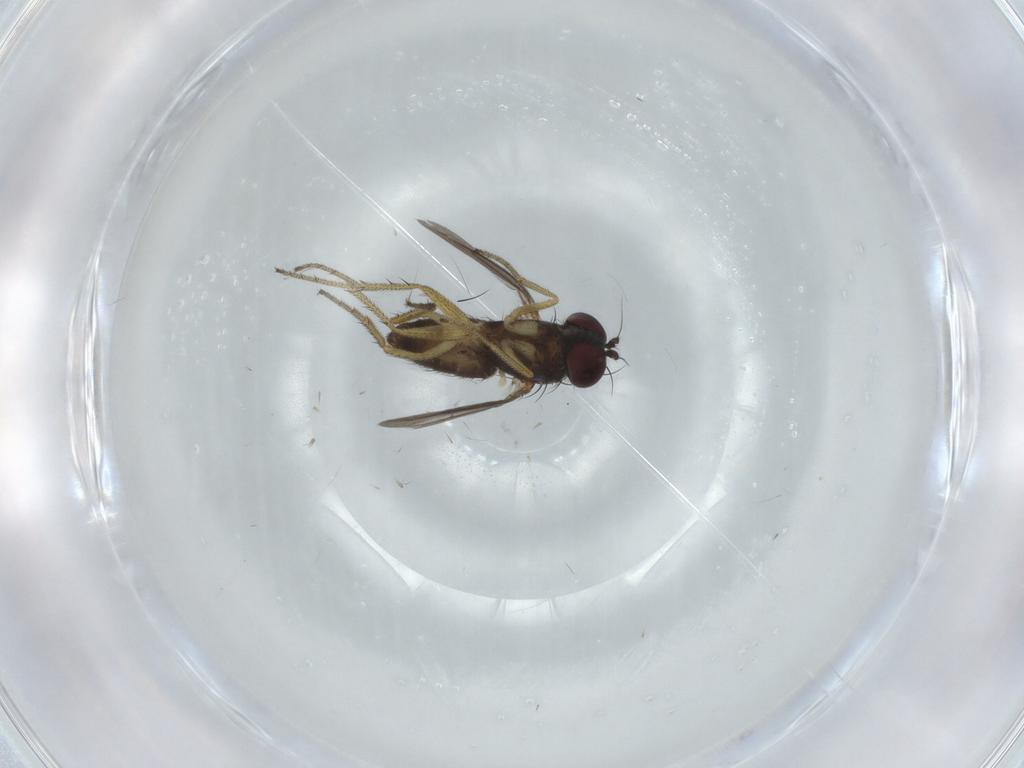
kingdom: Animalia
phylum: Arthropoda
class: Insecta
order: Diptera
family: Dolichopodidae
